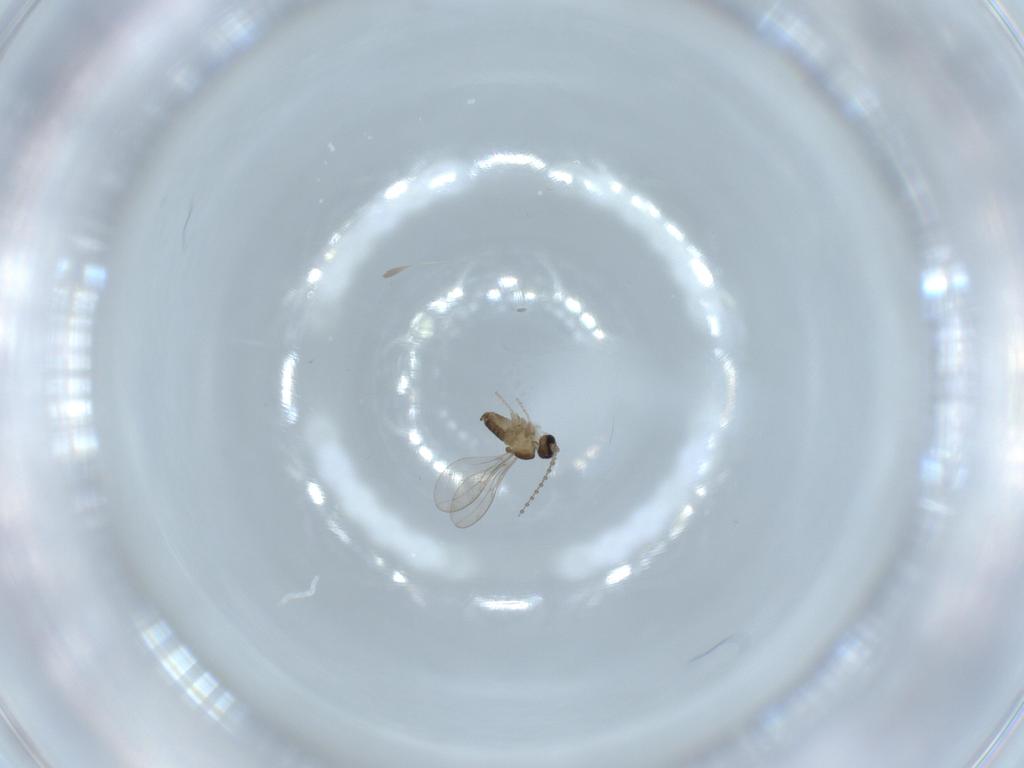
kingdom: Animalia
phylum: Arthropoda
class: Insecta
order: Diptera
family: Cecidomyiidae
